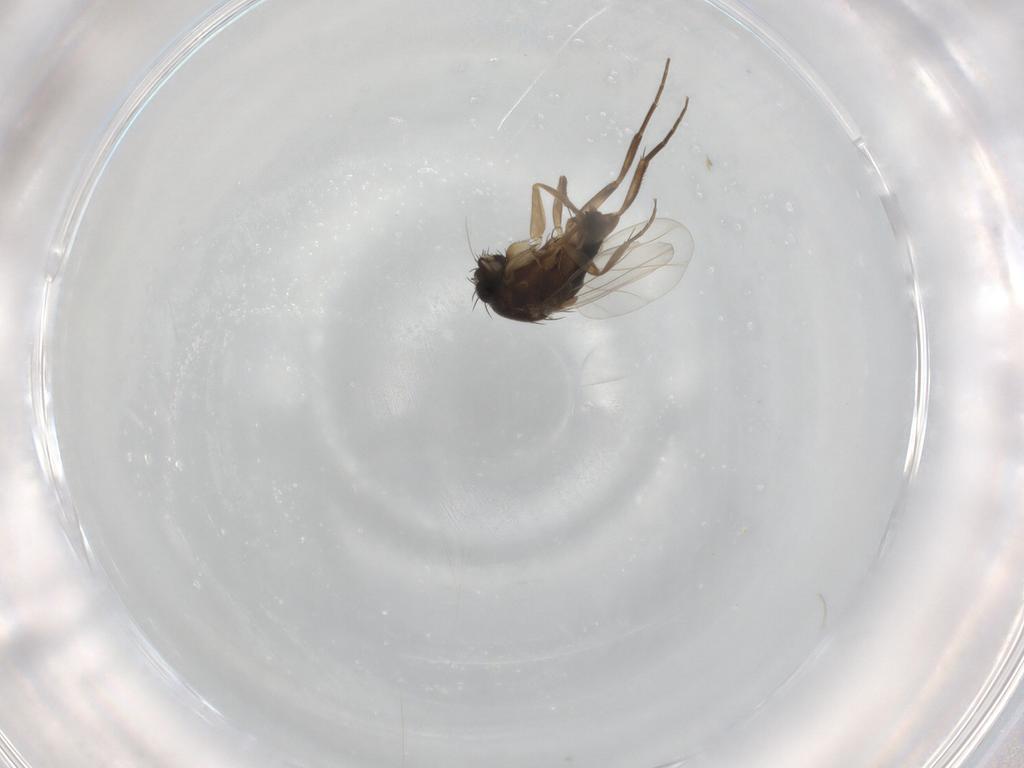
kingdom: Animalia
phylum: Arthropoda
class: Insecta
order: Diptera
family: Phoridae
